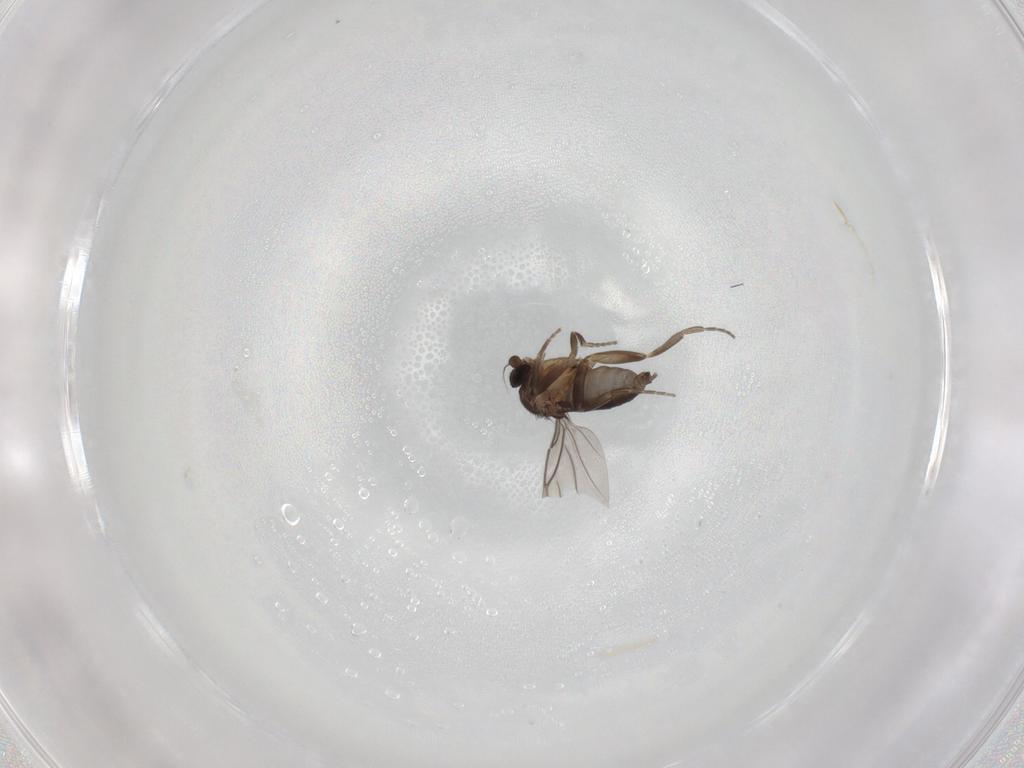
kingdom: Animalia
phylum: Arthropoda
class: Insecta
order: Diptera
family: Phoridae
